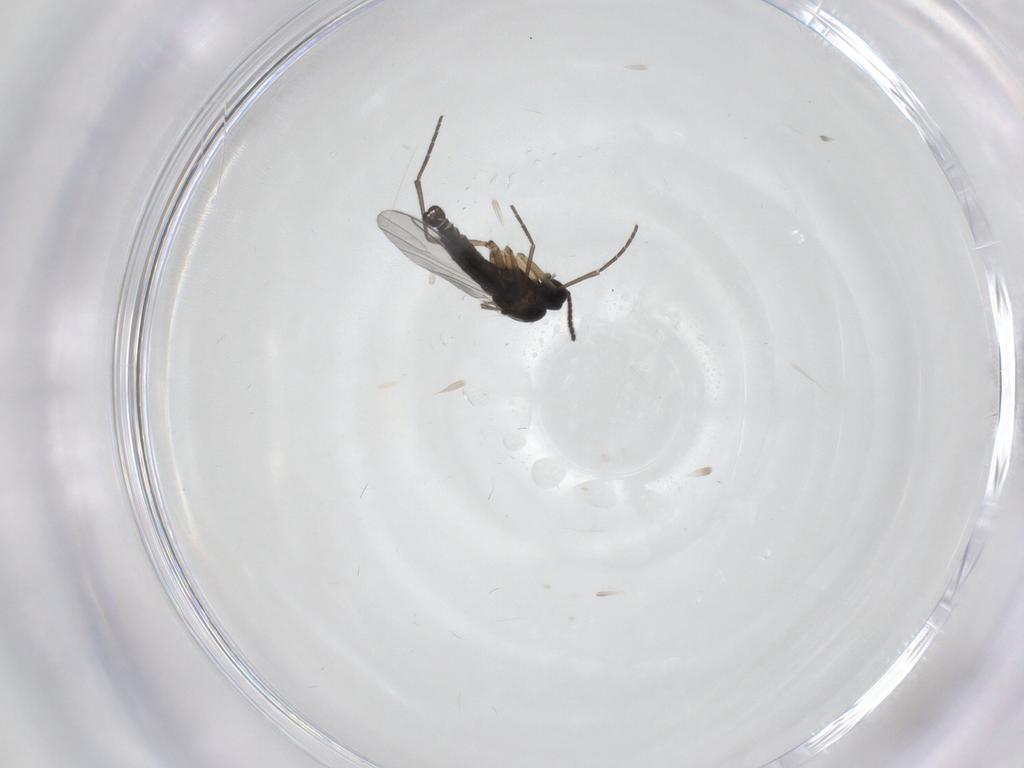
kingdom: Animalia
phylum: Arthropoda
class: Insecta
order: Diptera
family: Sciaridae
